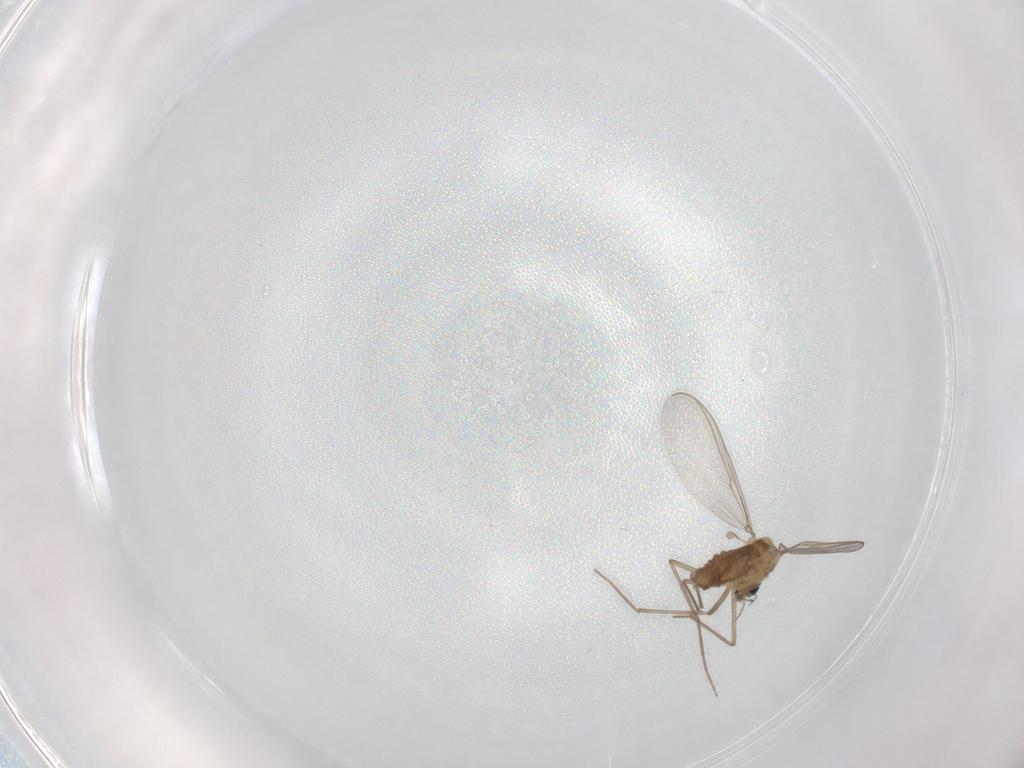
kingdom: Animalia
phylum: Arthropoda
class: Insecta
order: Diptera
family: Chironomidae
